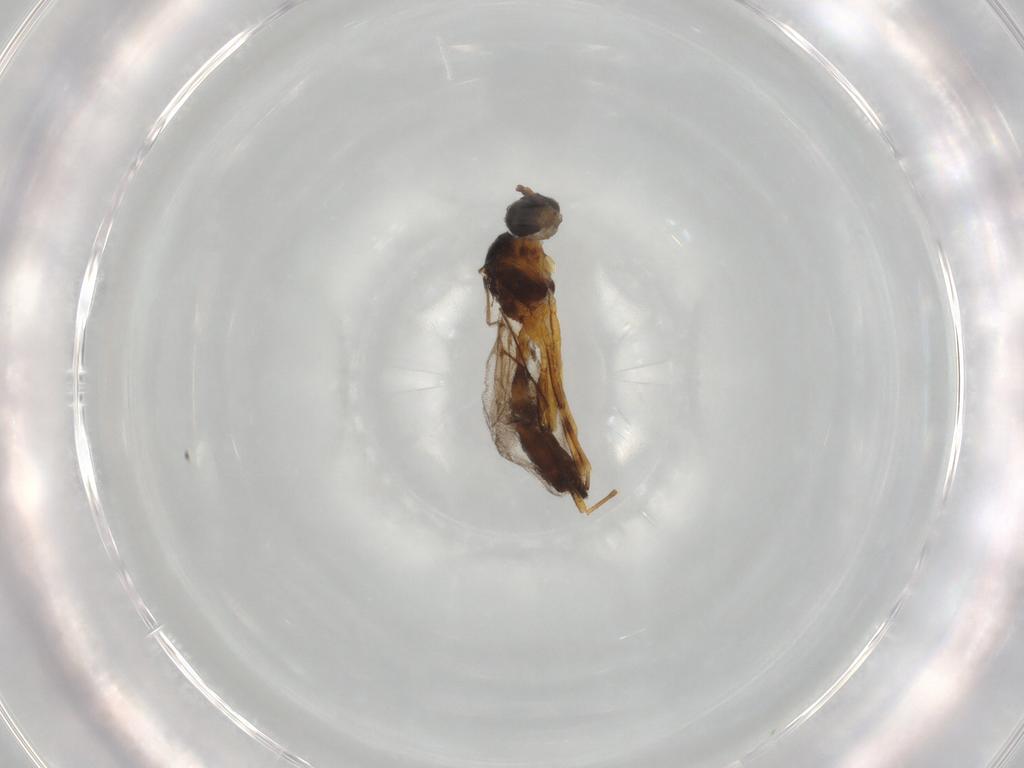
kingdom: Animalia
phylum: Arthropoda
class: Insecta
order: Hymenoptera
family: Braconidae
